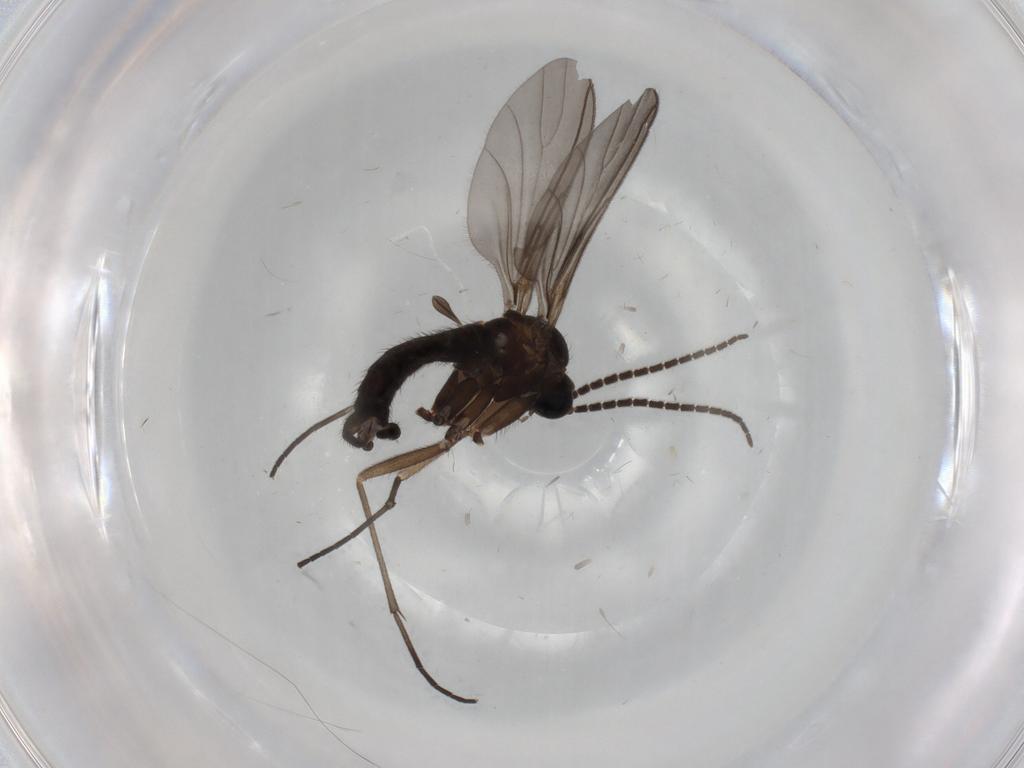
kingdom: Animalia
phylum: Arthropoda
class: Insecta
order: Diptera
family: Sciaridae
